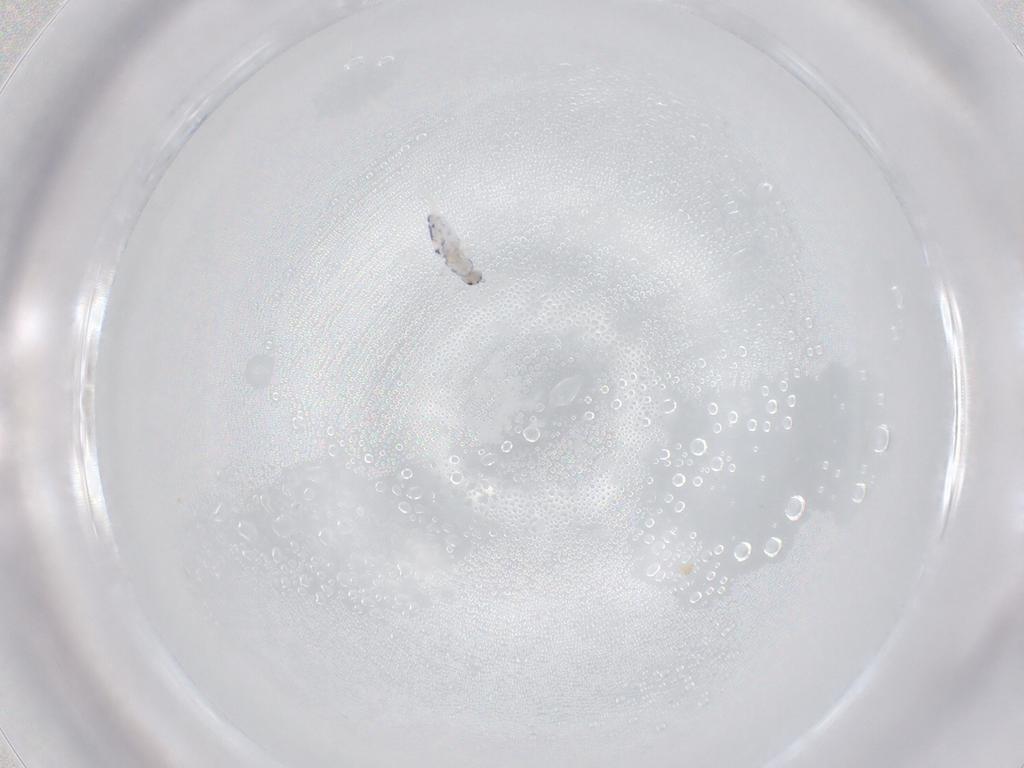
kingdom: Animalia
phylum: Arthropoda
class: Collembola
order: Entomobryomorpha
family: Entomobryidae
